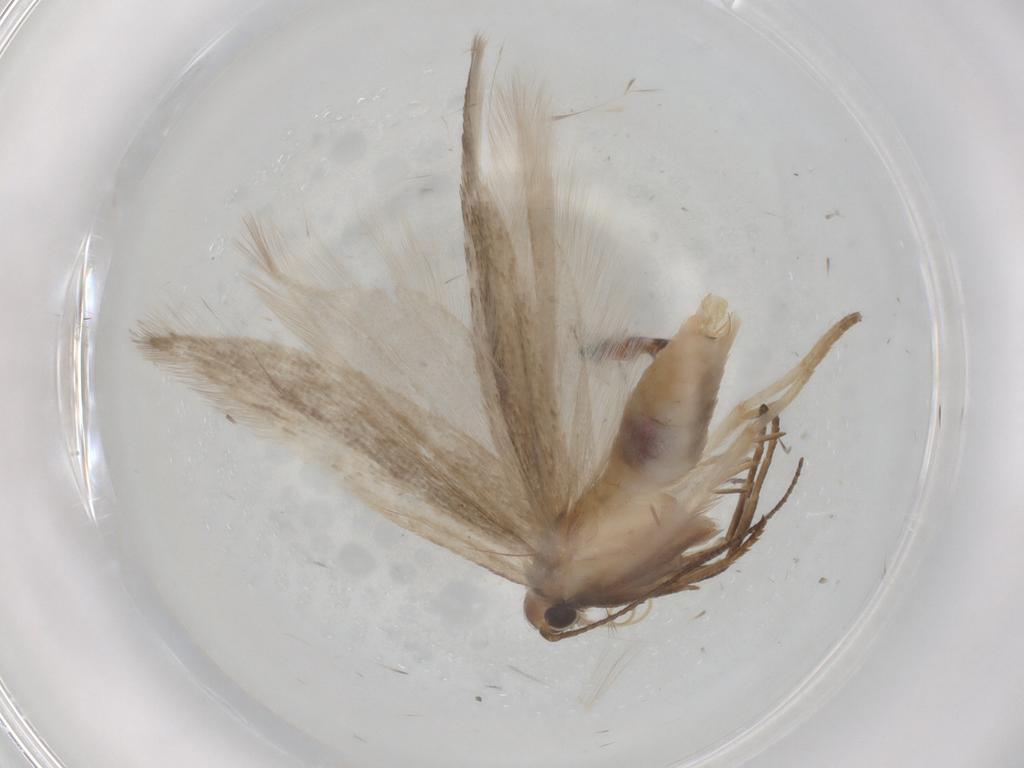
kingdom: Animalia
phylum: Arthropoda
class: Insecta
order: Lepidoptera
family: Gelechiidae
